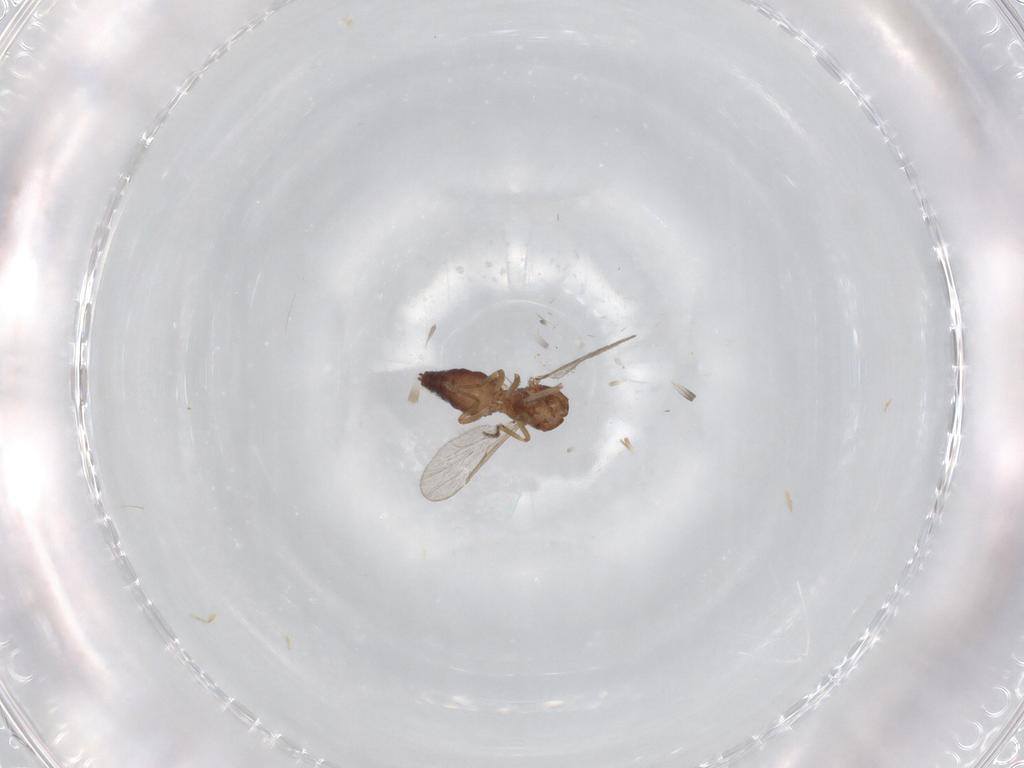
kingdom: Animalia
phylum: Arthropoda
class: Insecta
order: Diptera
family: Ceratopogonidae
